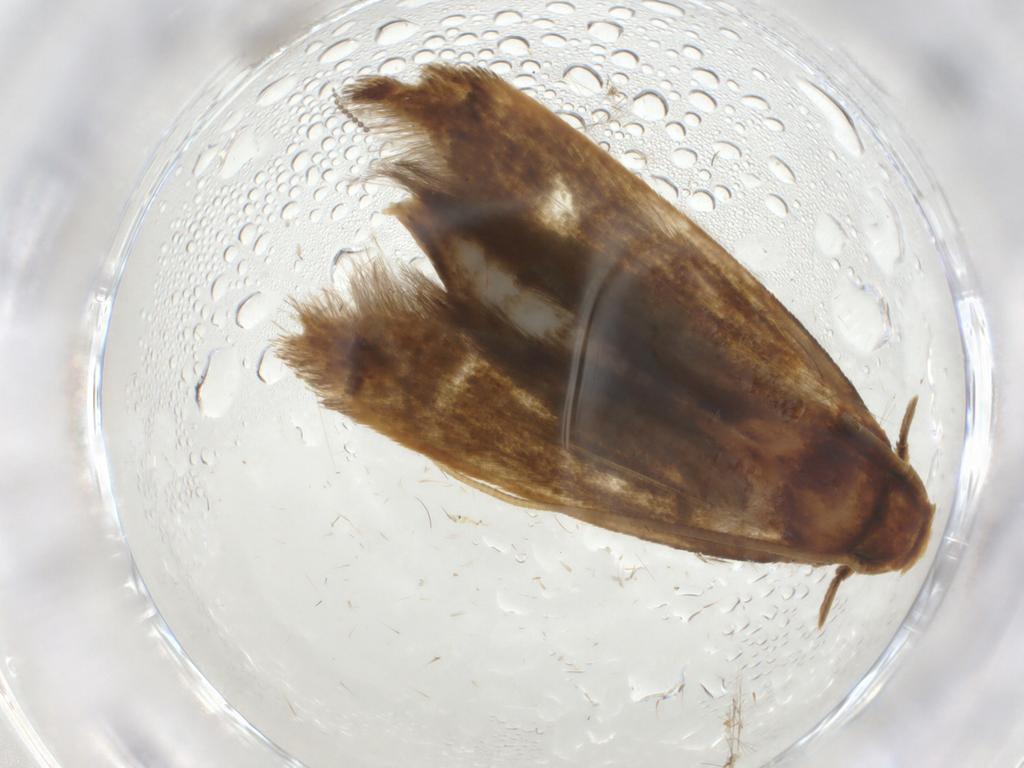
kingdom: Animalia
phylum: Arthropoda
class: Insecta
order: Lepidoptera
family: Tineidae
